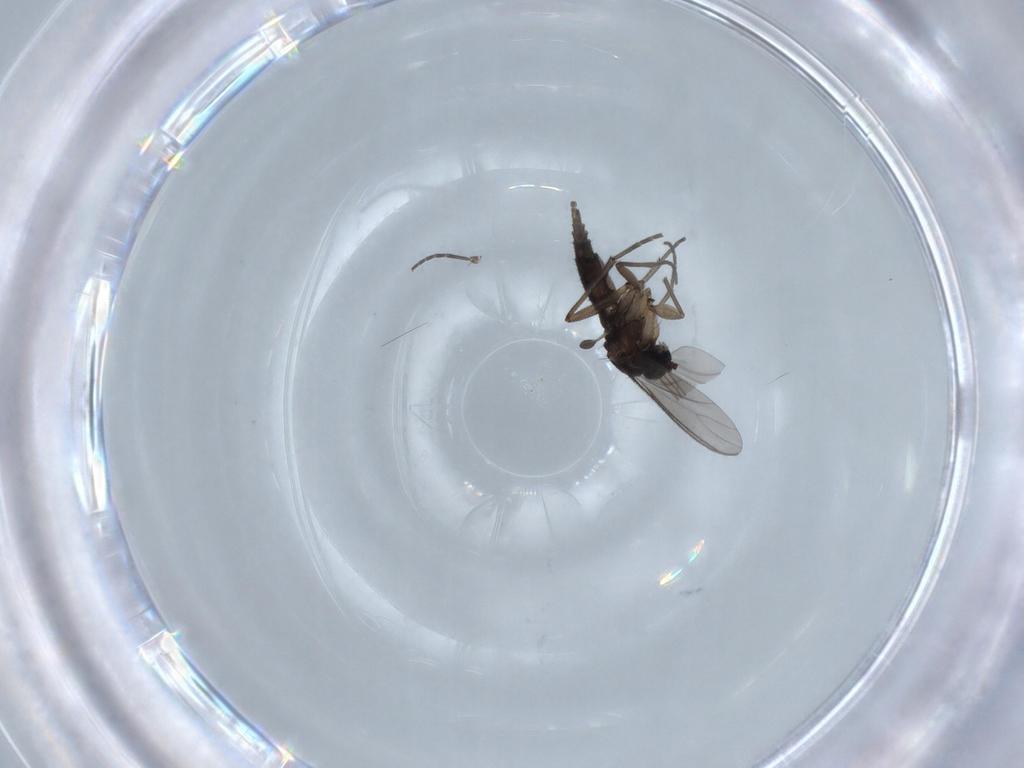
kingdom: Animalia
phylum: Arthropoda
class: Insecta
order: Diptera
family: Sciaridae
